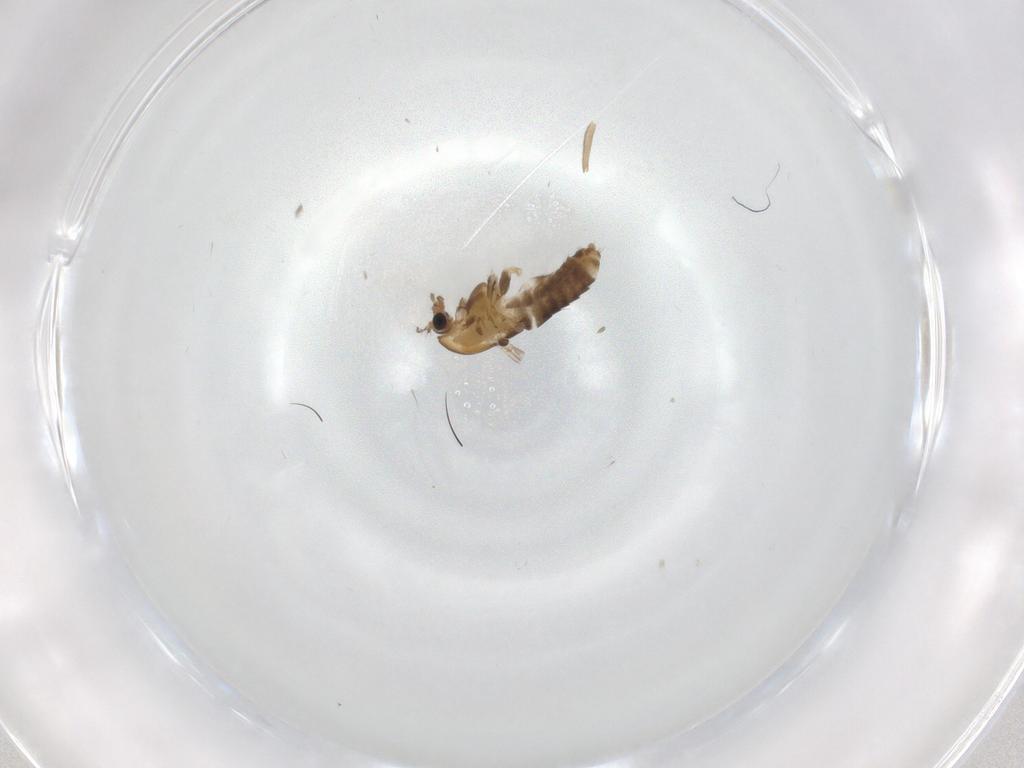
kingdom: Animalia
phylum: Arthropoda
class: Insecta
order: Diptera
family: Chironomidae
